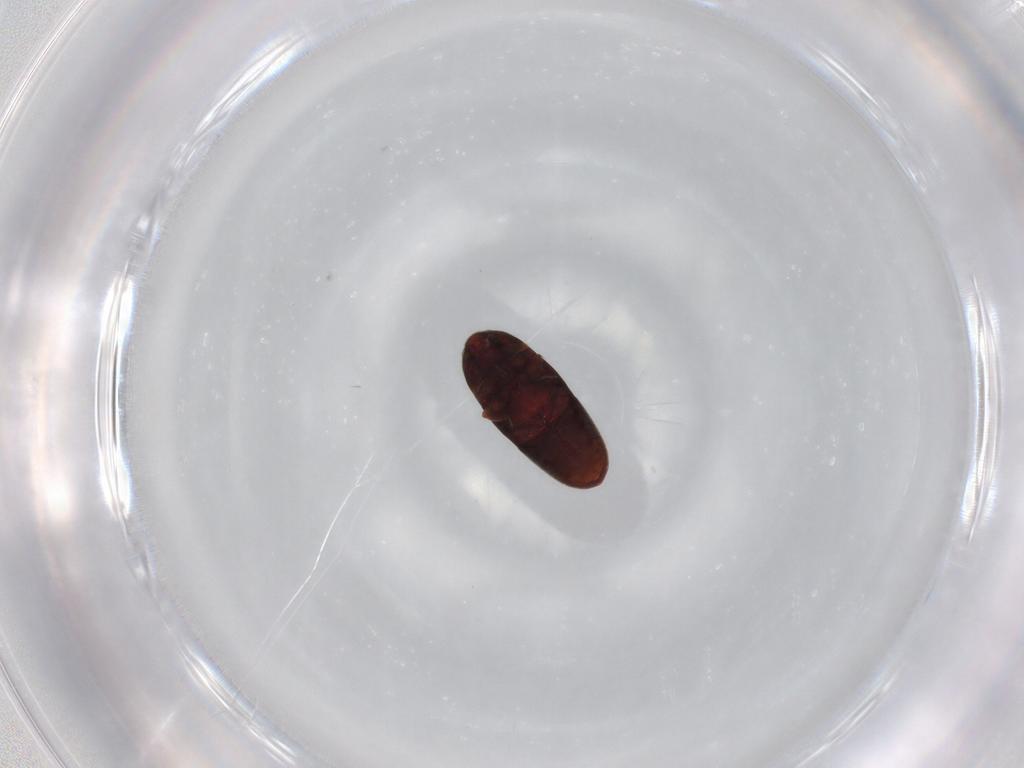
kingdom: Animalia
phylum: Arthropoda
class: Insecta
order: Coleoptera
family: Throscidae
